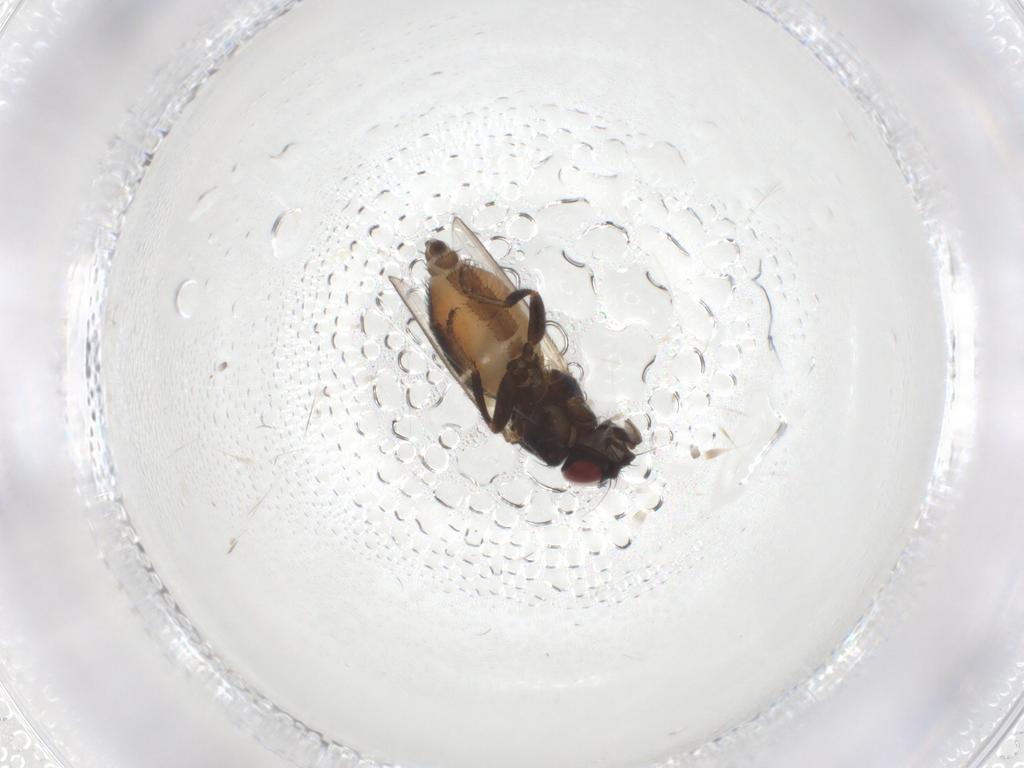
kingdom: Animalia
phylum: Arthropoda
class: Insecta
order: Diptera
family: Milichiidae
